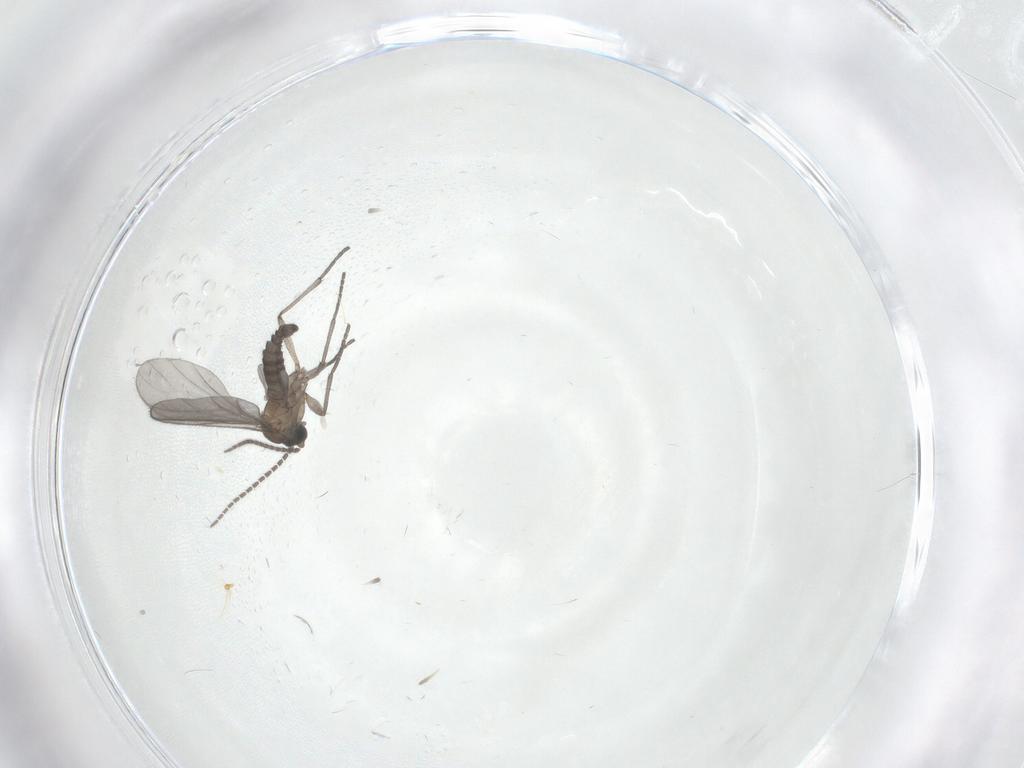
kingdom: Animalia
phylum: Arthropoda
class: Insecta
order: Diptera
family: Sciaridae
